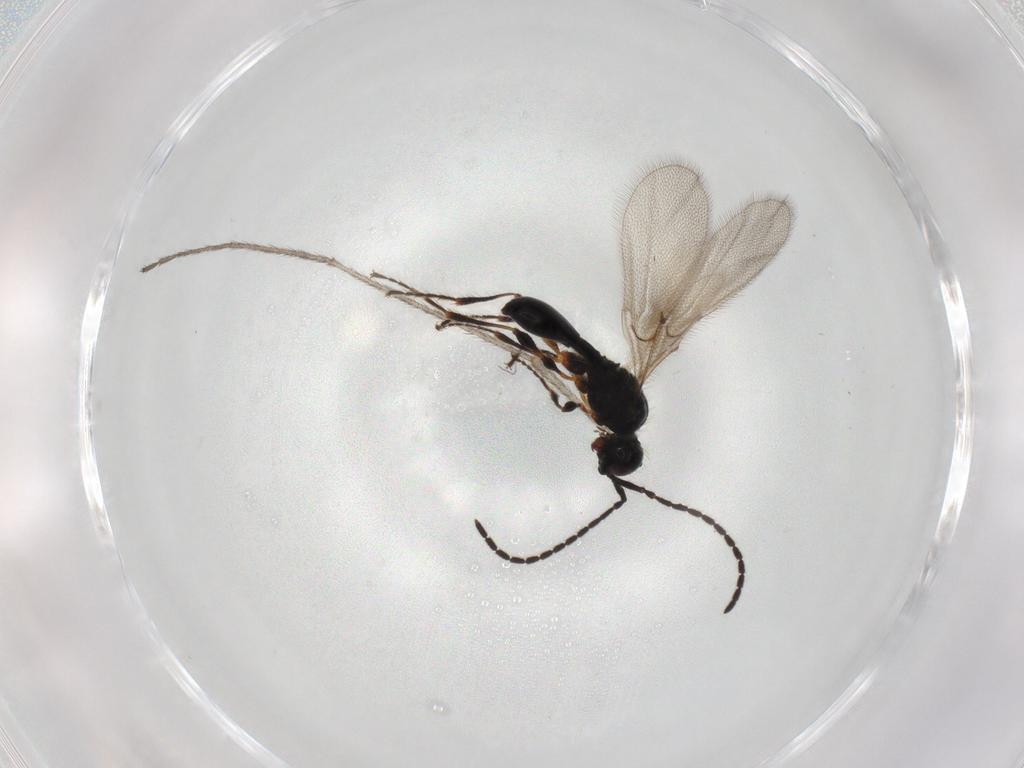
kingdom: Animalia
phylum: Arthropoda
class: Insecta
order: Hymenoptera
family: Diapriidae
